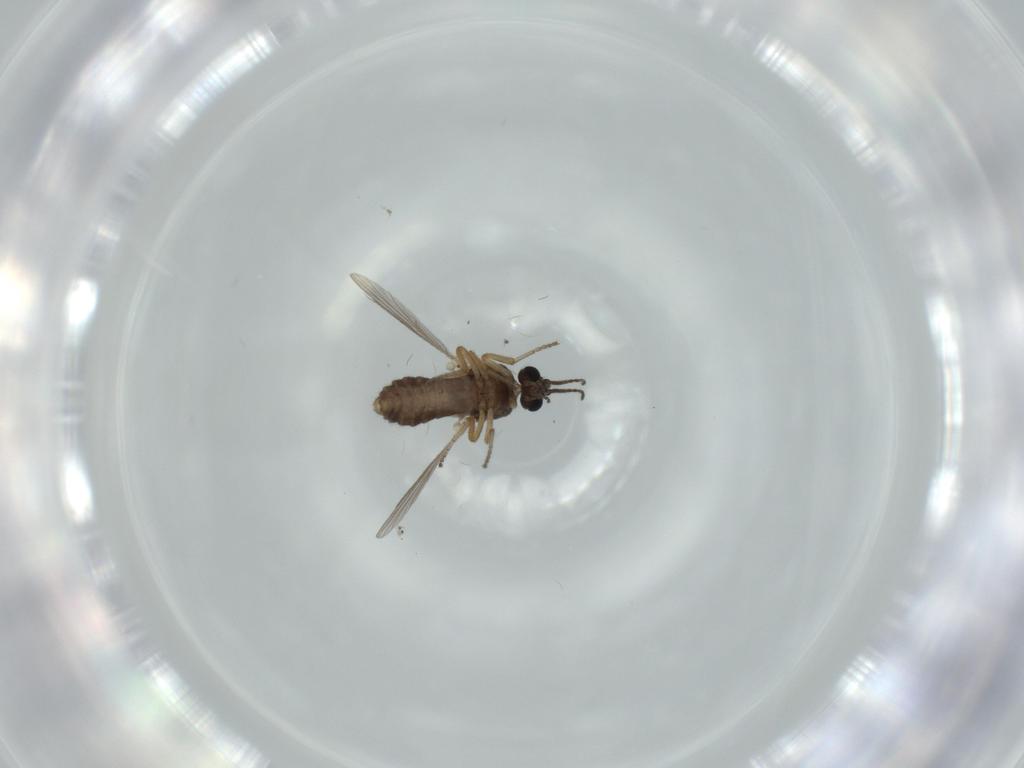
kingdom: Animalia
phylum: Arthropoda
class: Insecta
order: Diptera
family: Ceratopogonidae
